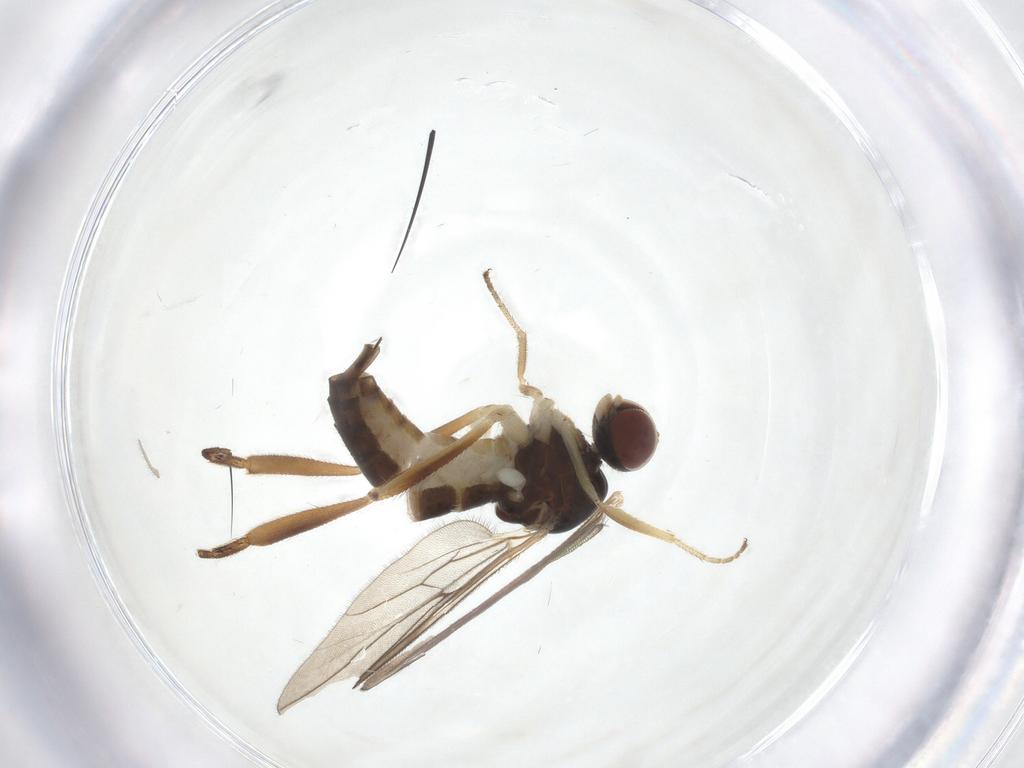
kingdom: Animalia
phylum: Arthropoda
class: Insecta
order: Diptera
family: Hybotidae
